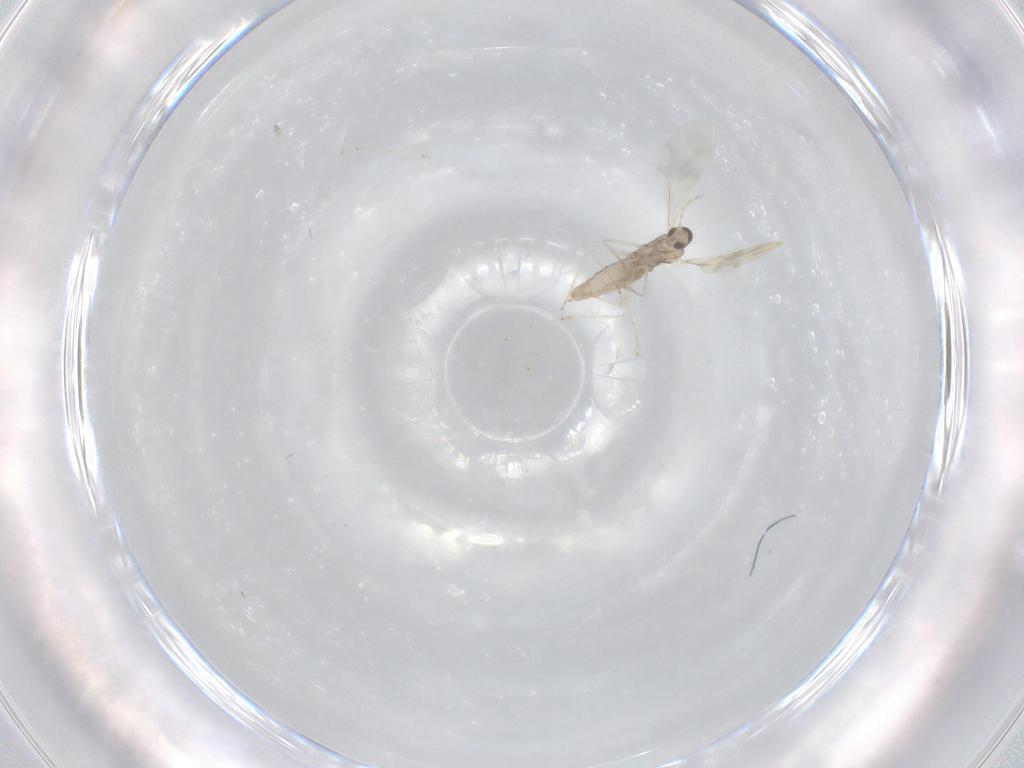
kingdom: Animalia
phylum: Arthropoda
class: Insecta
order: Diptera
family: Cecidomyiidae
